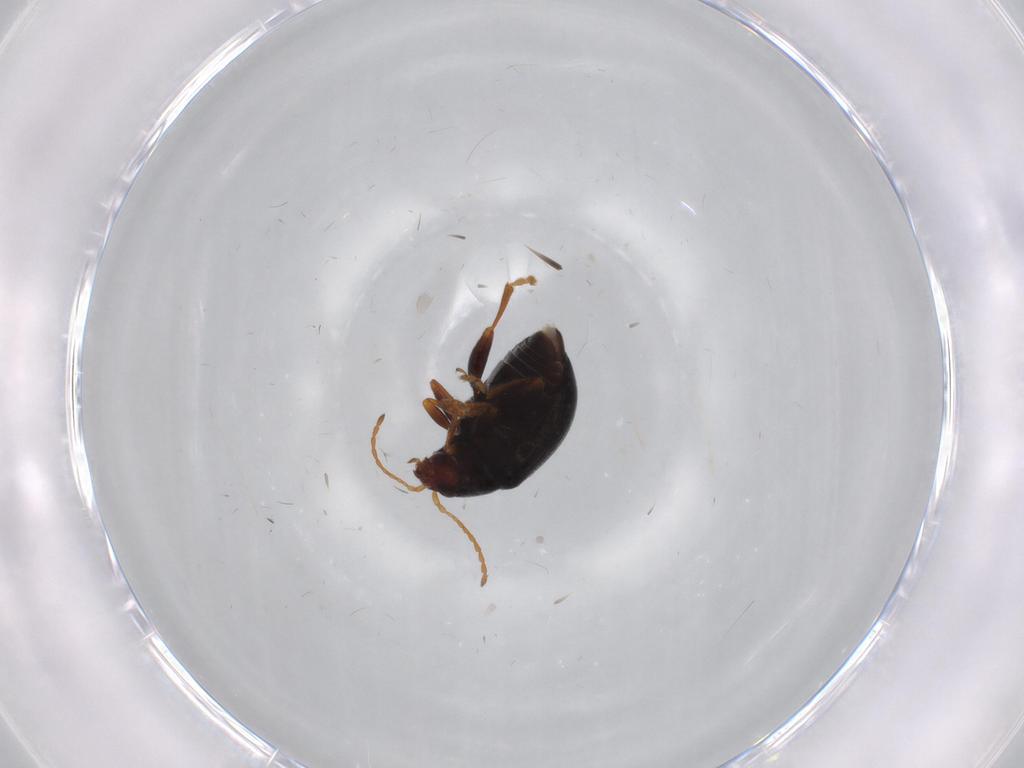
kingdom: Animalia
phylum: Arthropoda
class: Insecta
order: Coleoptera
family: Chrysomelidae
